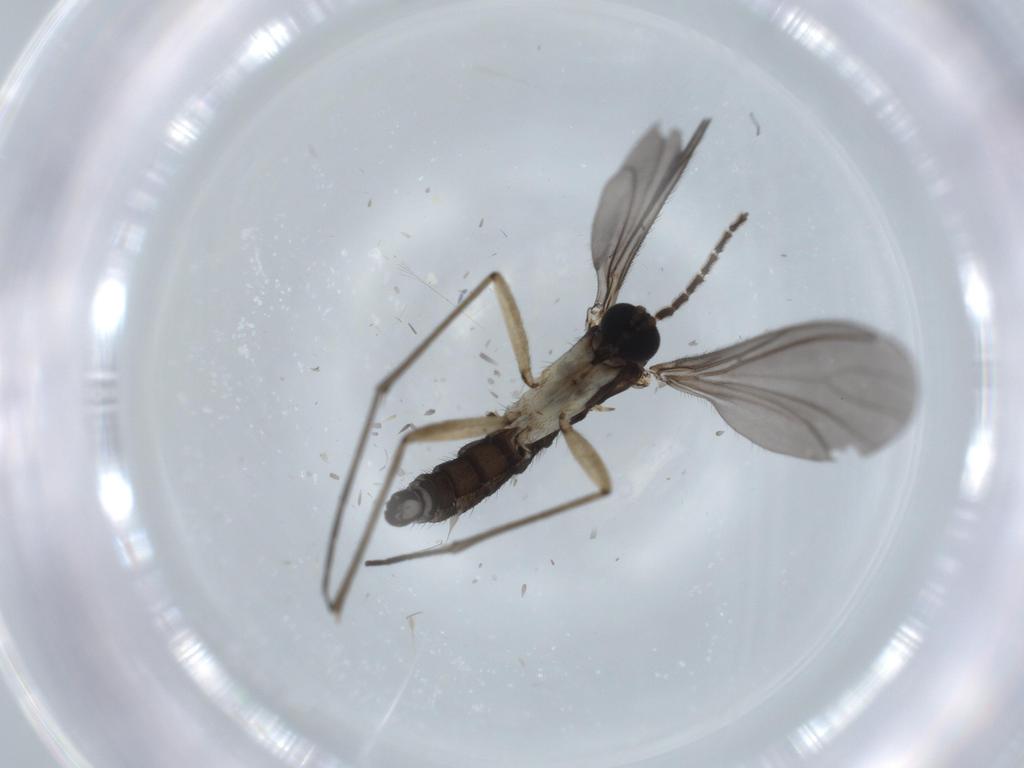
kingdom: Animalia
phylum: Arthropoda
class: Insecta
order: Diptera
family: Sciaridae
